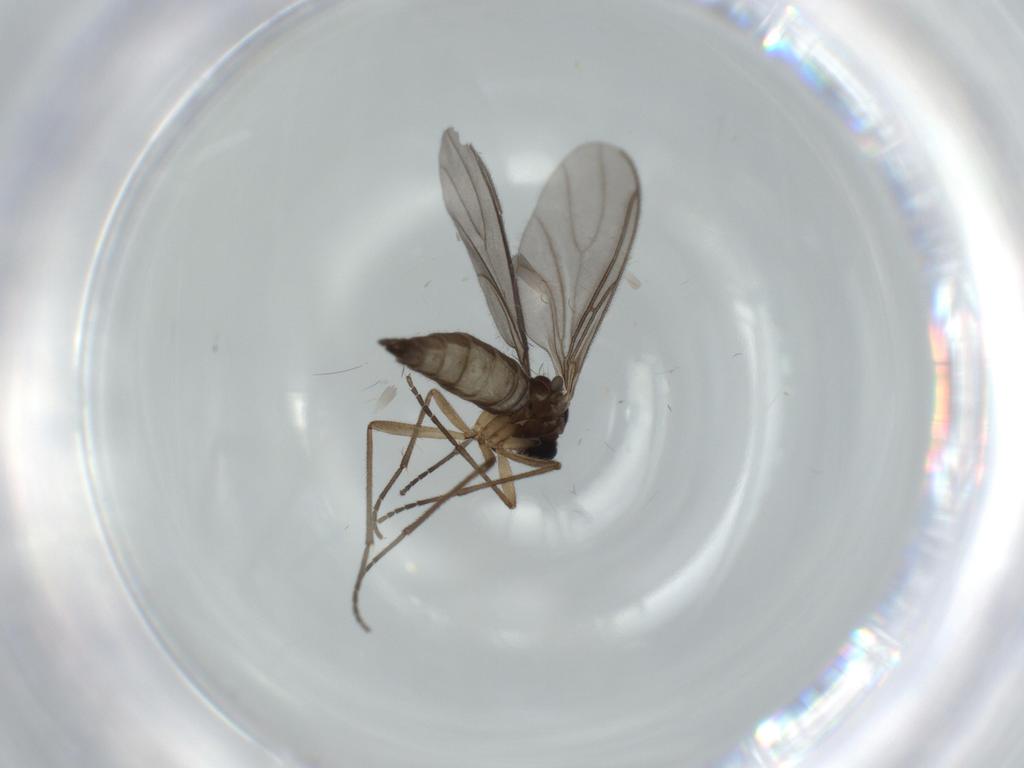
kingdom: Animalia
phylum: Arthropoda
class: Insecta
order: Diptera
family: Sciaridae
